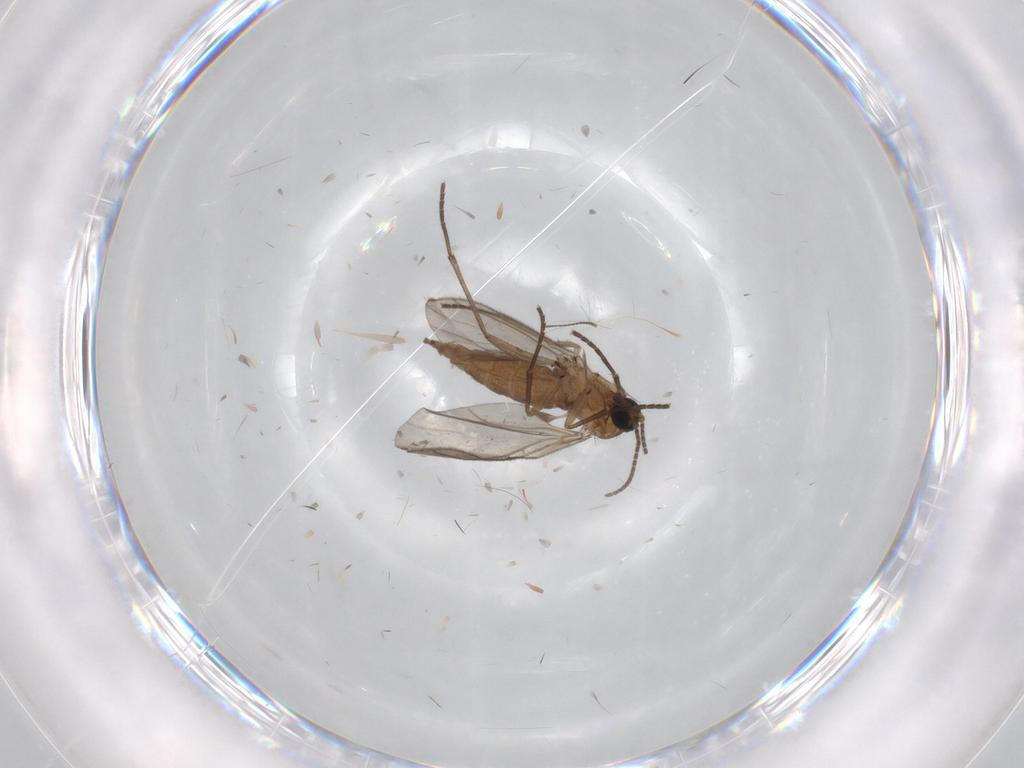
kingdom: Animalia
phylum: Arthropoda
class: Insecta
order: Diptera
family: Sciaridae
